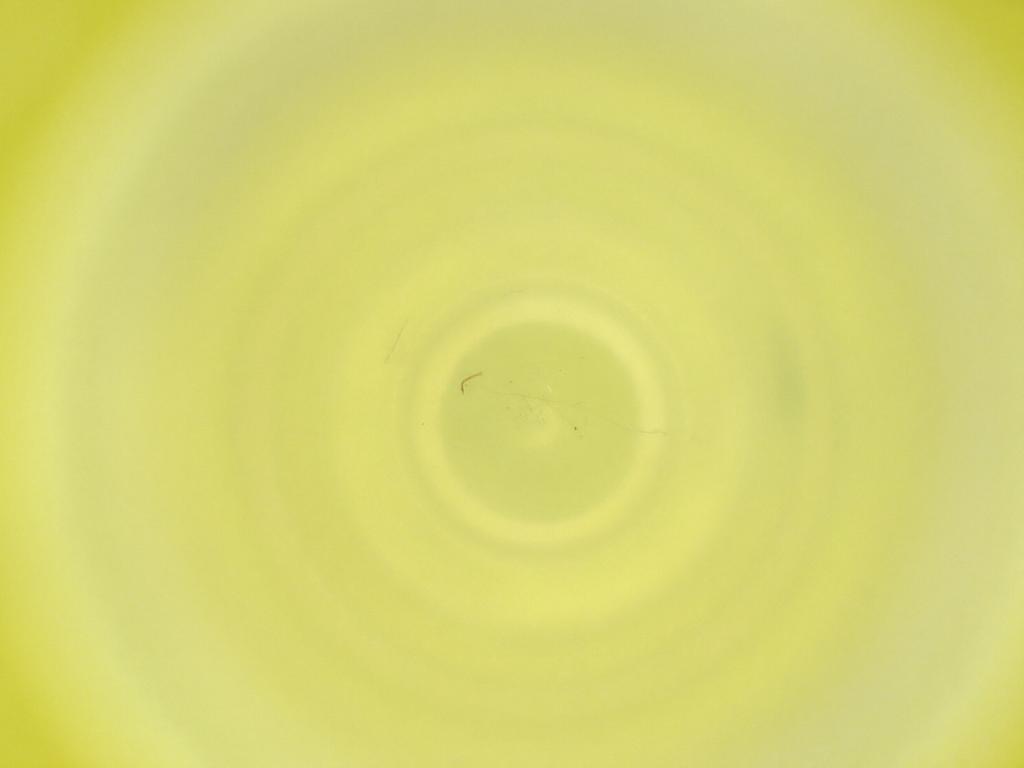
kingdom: Animalia
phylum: Arthropoda
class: Insecta
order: Diptera
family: Cecidomyiidae
